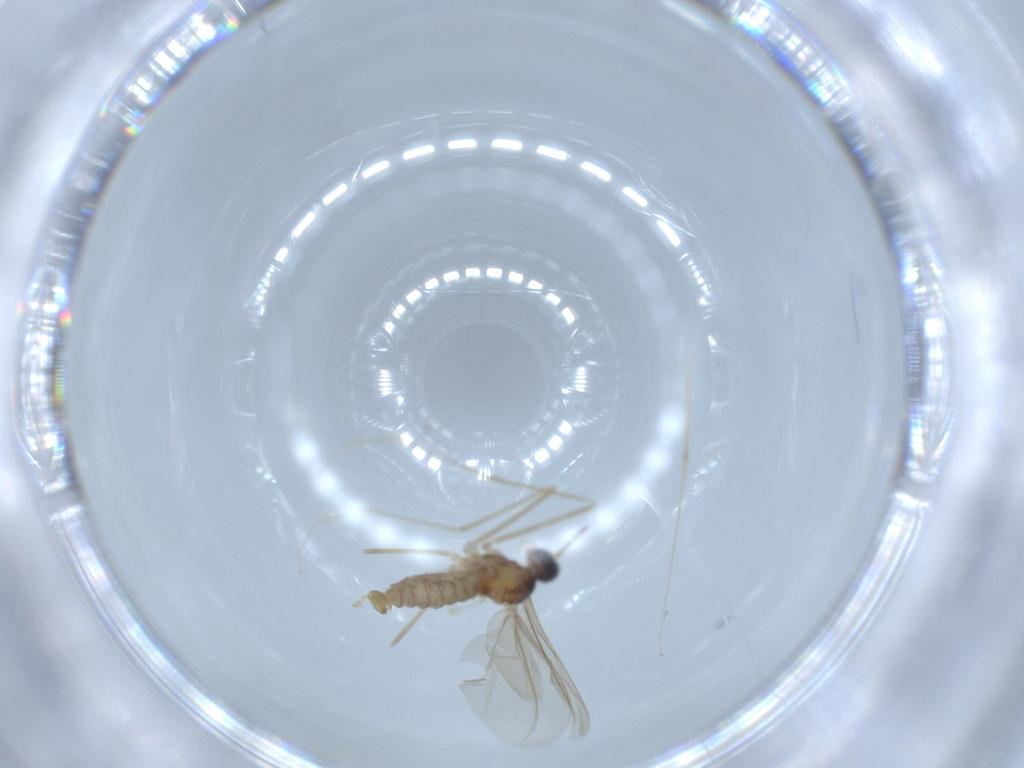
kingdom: Animalia
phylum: Arthropoda
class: Insecta
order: Diptera
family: Cecidomyiidae
